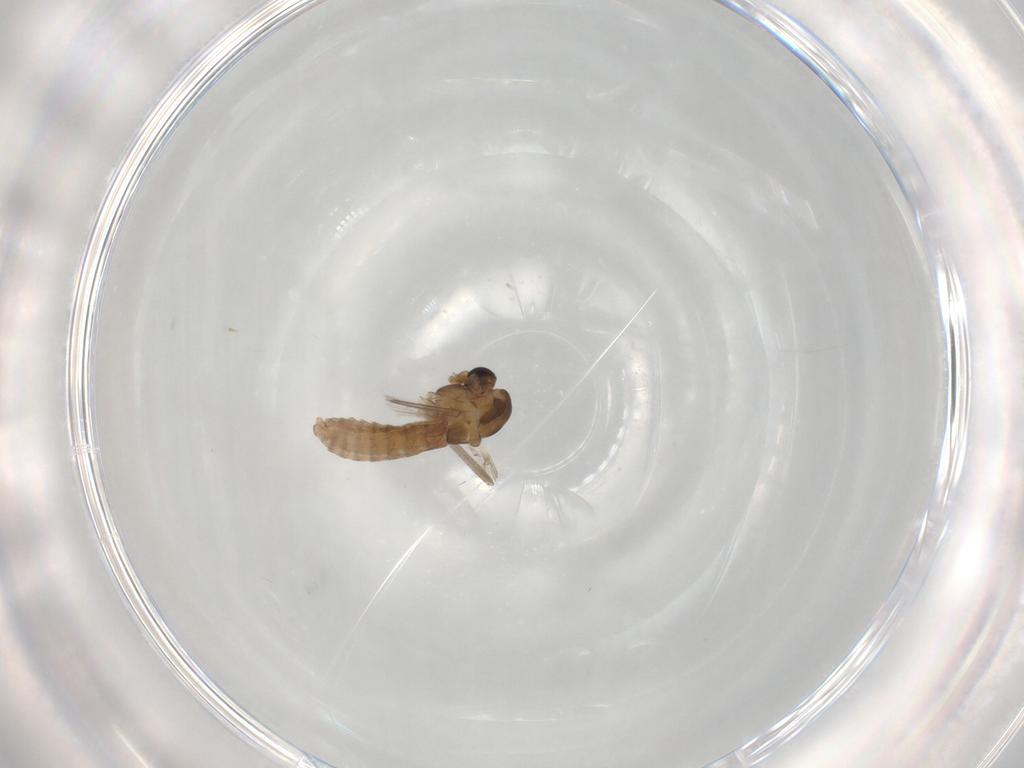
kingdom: Animalia
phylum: Arthropoda
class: Insecta
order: Diptera
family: Chironomidae
